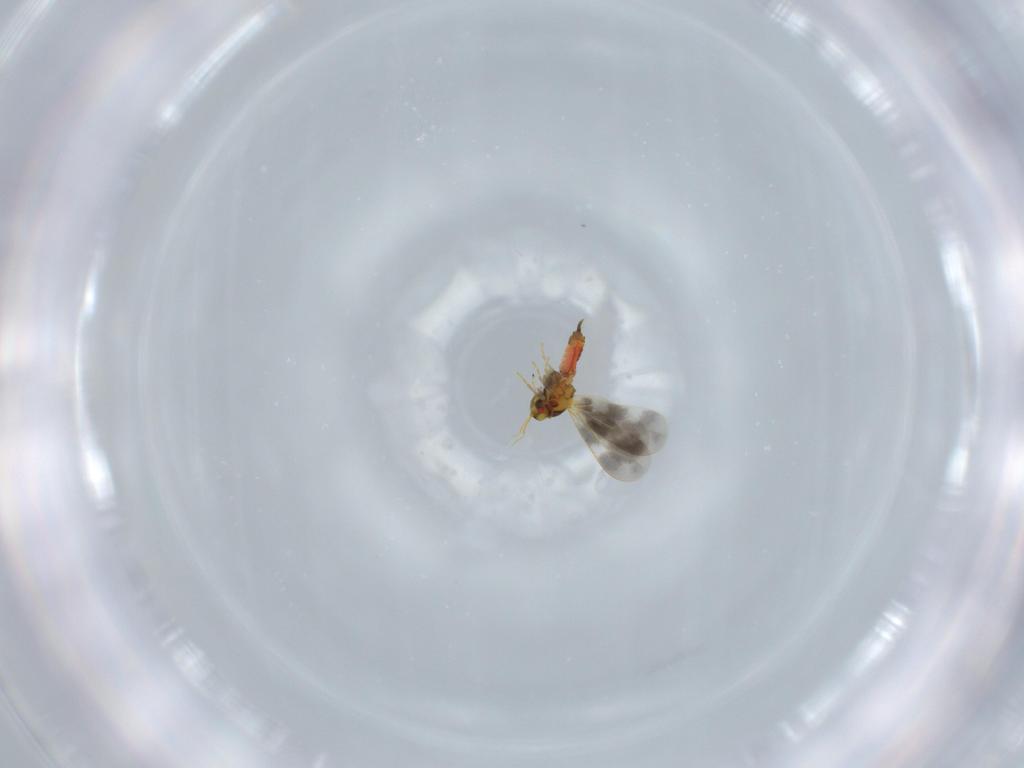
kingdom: Animalia
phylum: Arthropoda
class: Insecta
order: Hemiptera
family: Aleyrodidae
